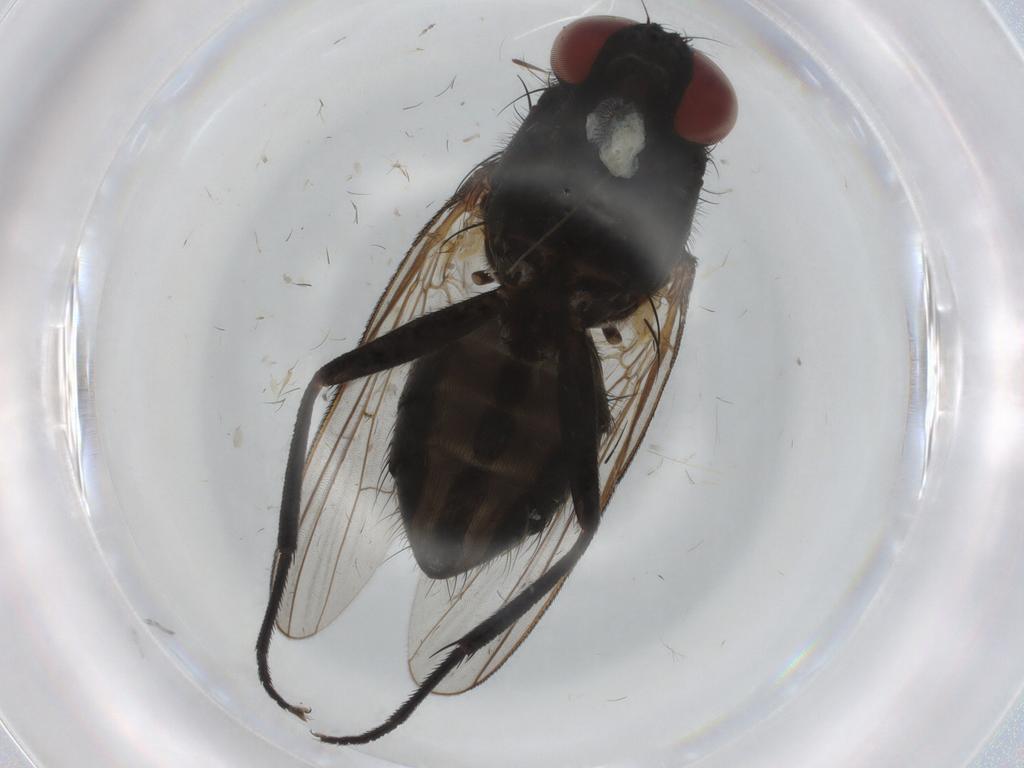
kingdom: Animalia
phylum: Arthropoda
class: Insecta
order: Diptera
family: Sciaridae
